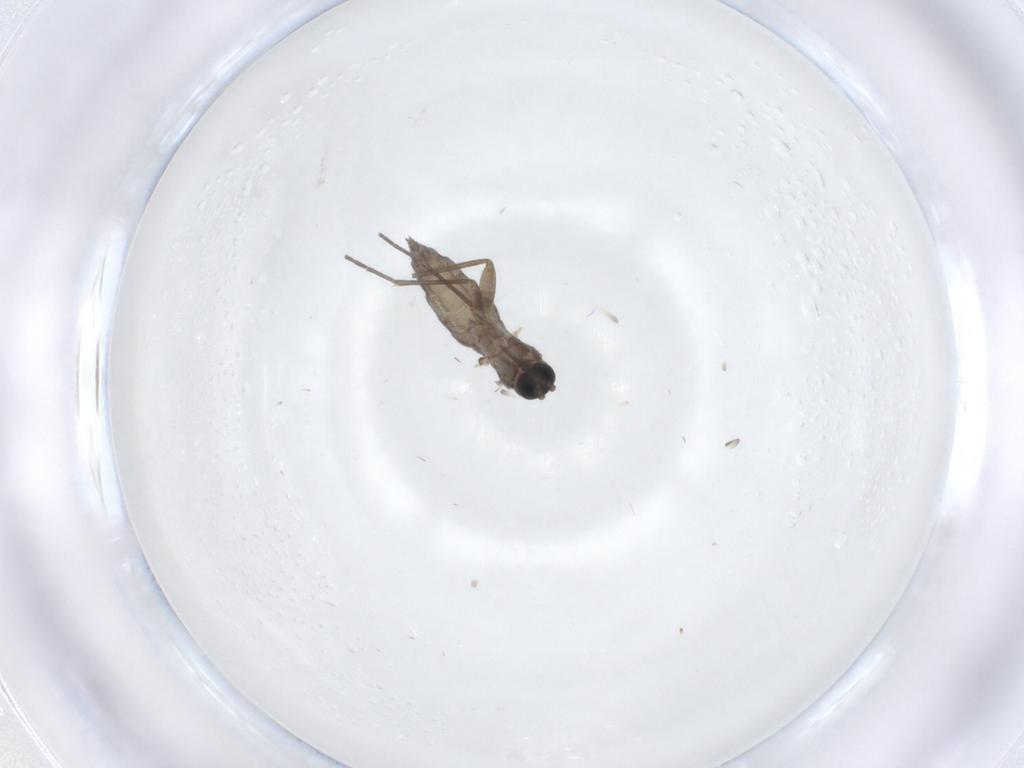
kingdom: Animalia
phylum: Arthropoda
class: Insecta
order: Diptera
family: Sciaridae
